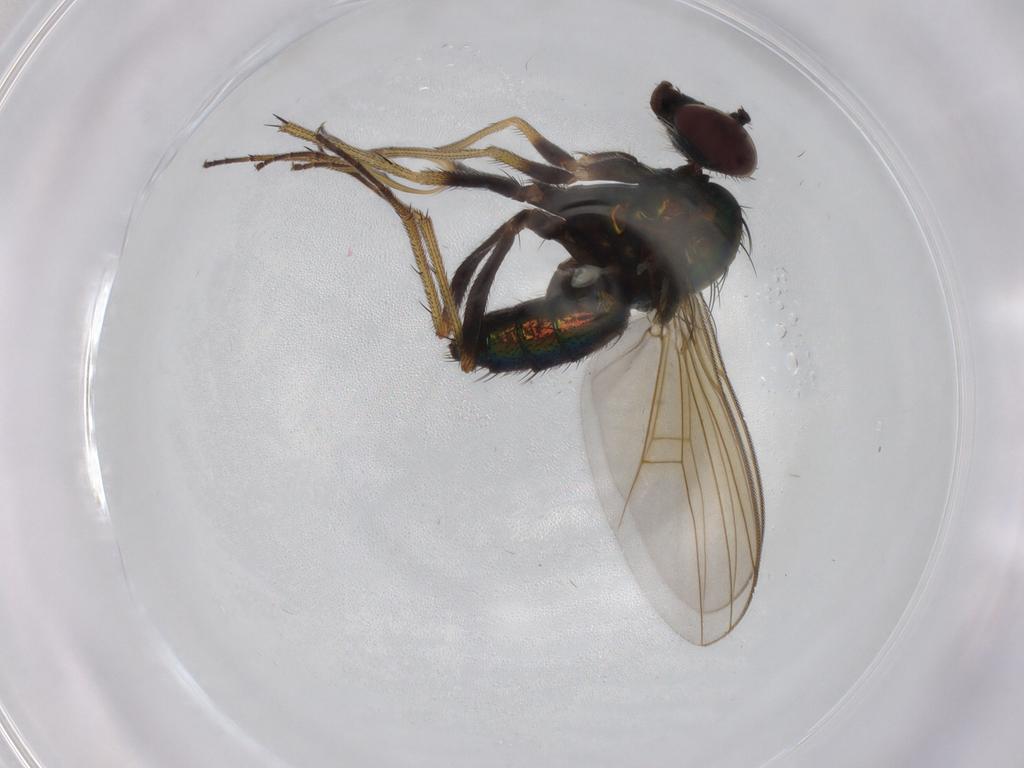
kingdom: Animalia
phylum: Arthropoda
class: Insecta
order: Diptera
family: Dolichopodidae
